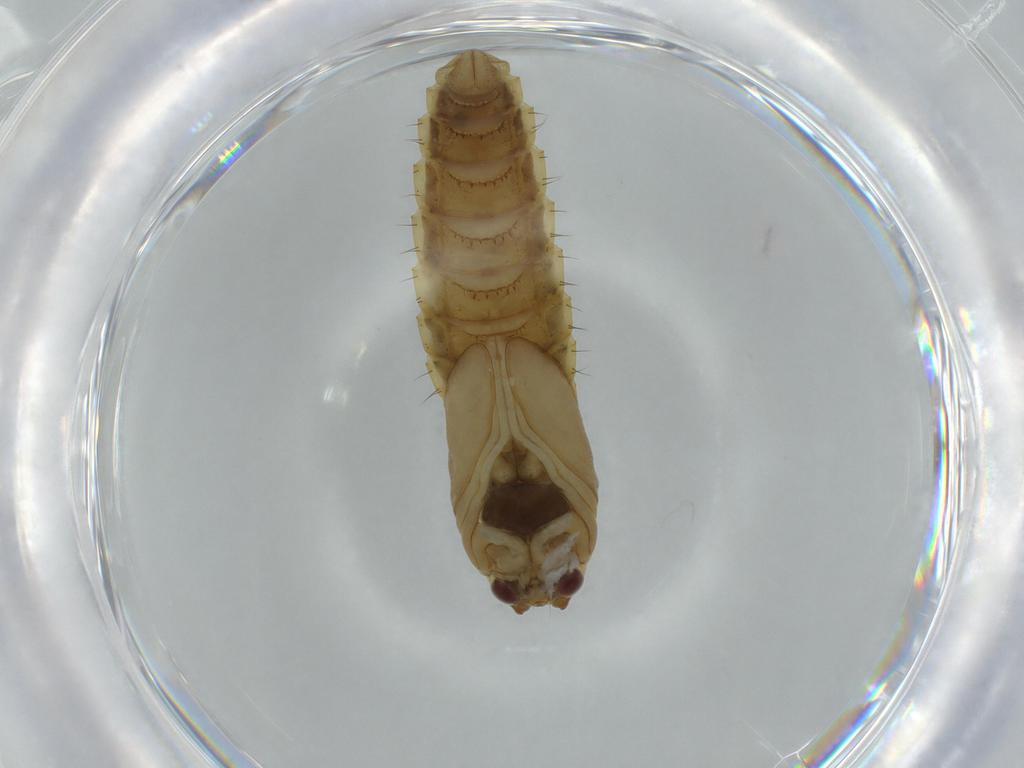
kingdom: Animalia
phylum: Arthropoda
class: Insecta
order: Diptera
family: Chironomidae
